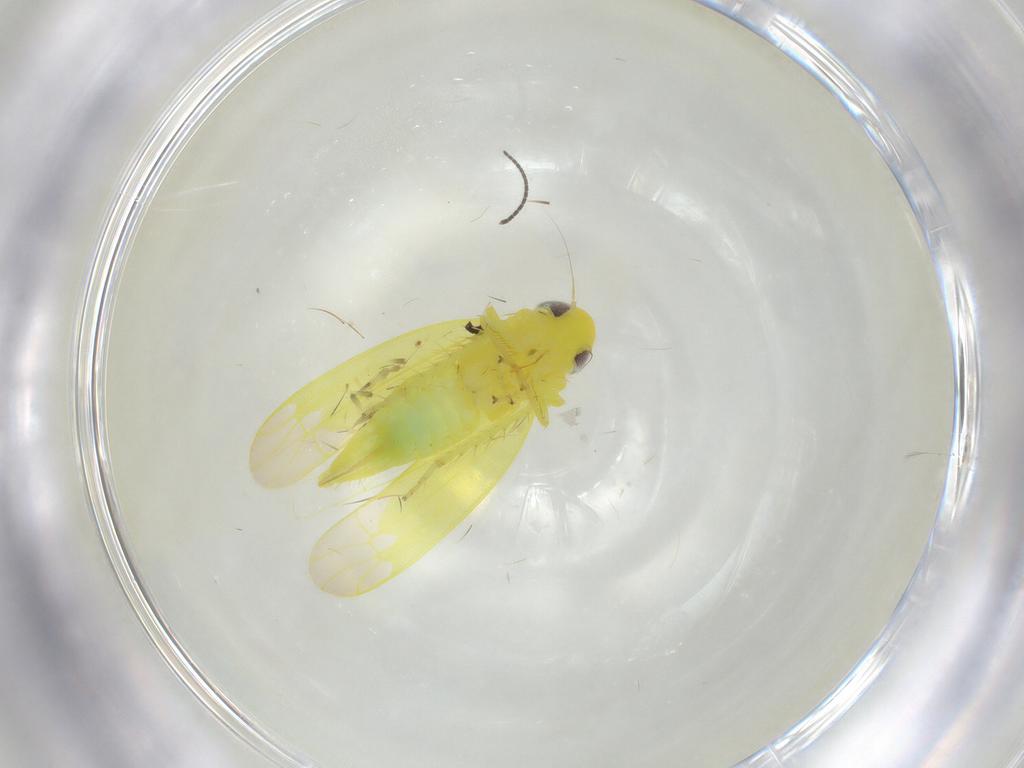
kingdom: Animalia
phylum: Arthropoda
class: Insecta
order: Hemiptera
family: Cicadellidae
